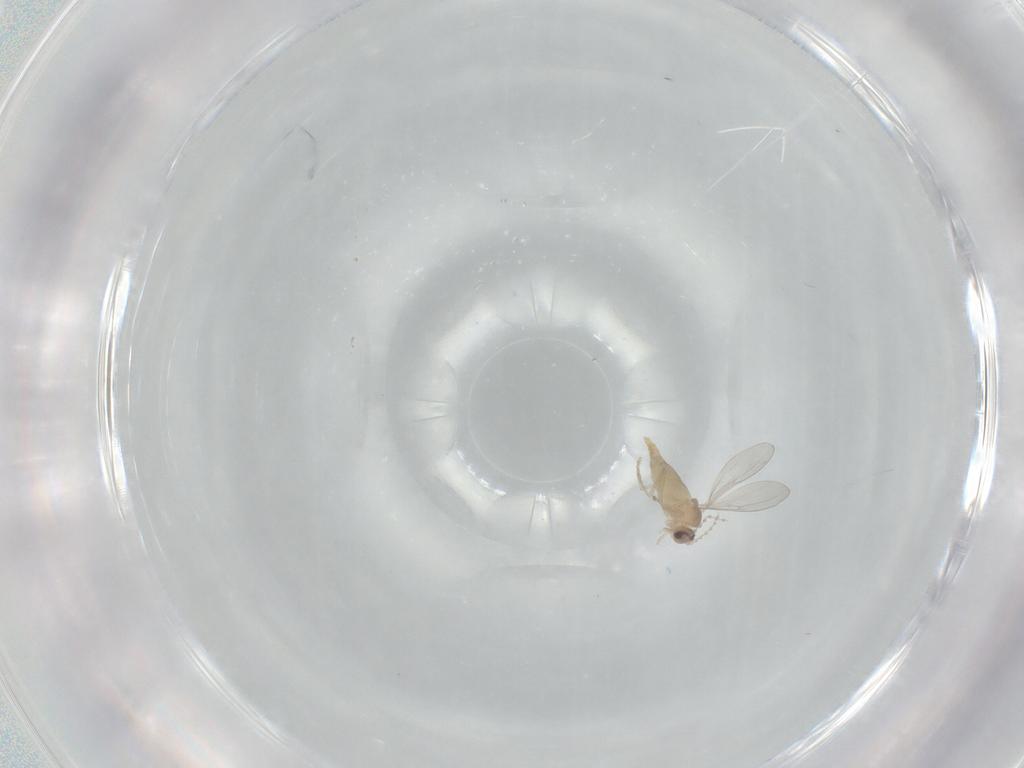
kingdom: Animalia
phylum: Arthropoda
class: Insecta
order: Diptera
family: Cecidomyiidae
